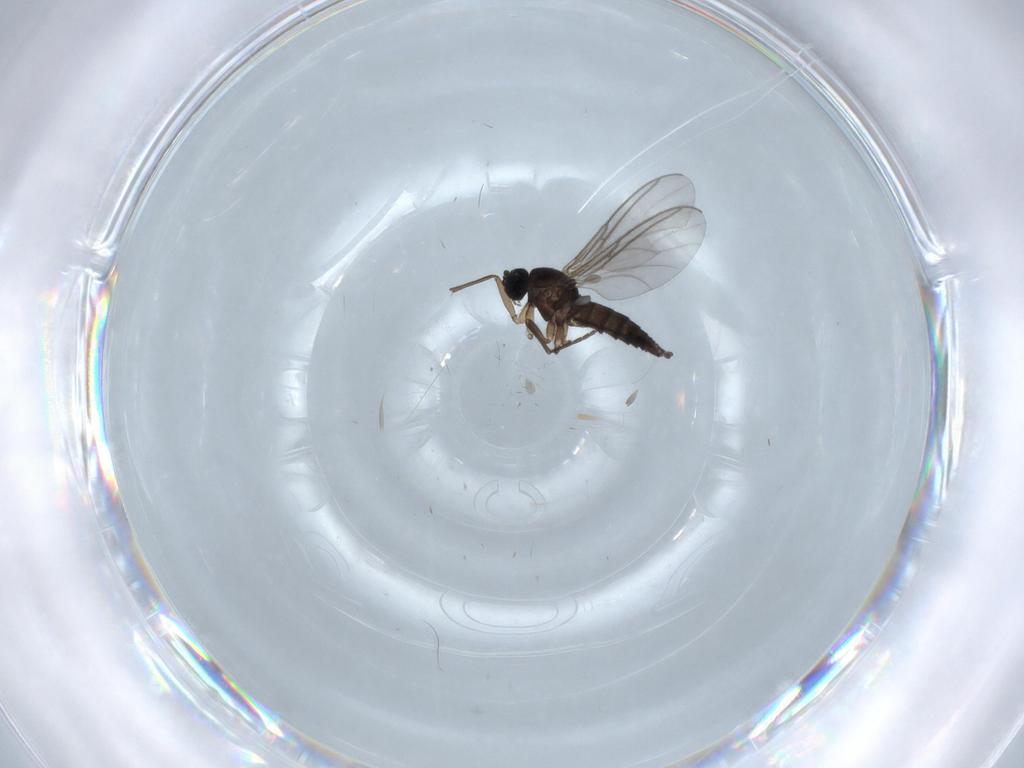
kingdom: Animalia
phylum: Arthropoda
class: Insecta
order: Diptera
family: Sciaridae
